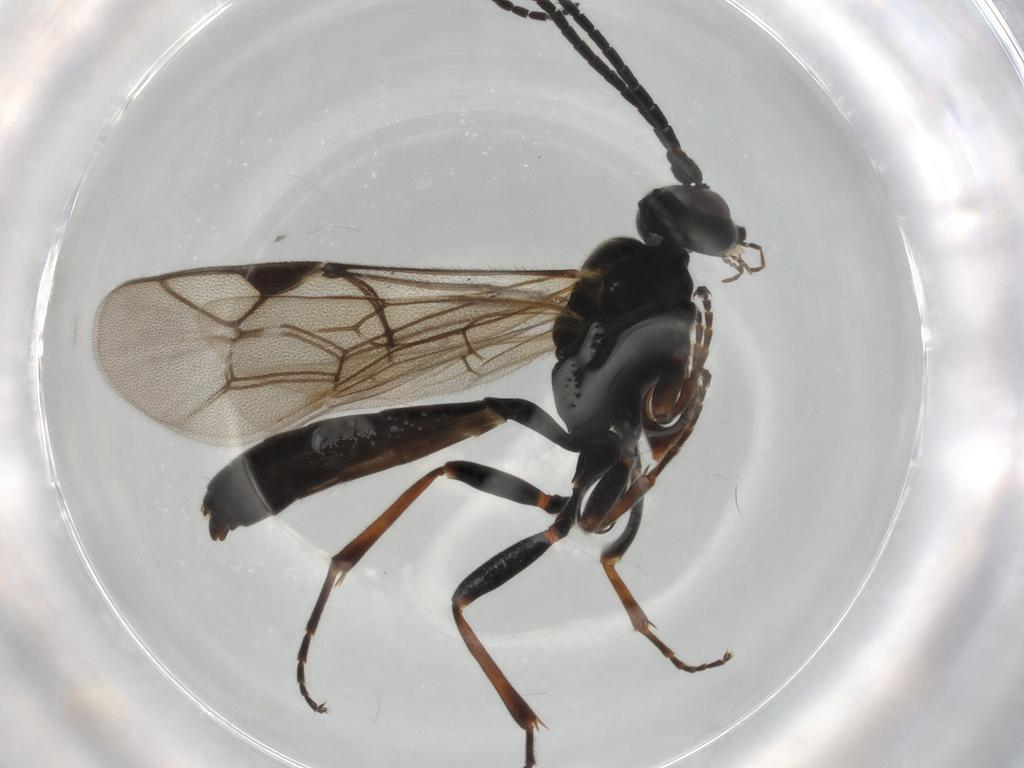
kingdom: Animalia
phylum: Arthropoda
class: Insecta
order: Hymenoptera
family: Ichneumonidae
